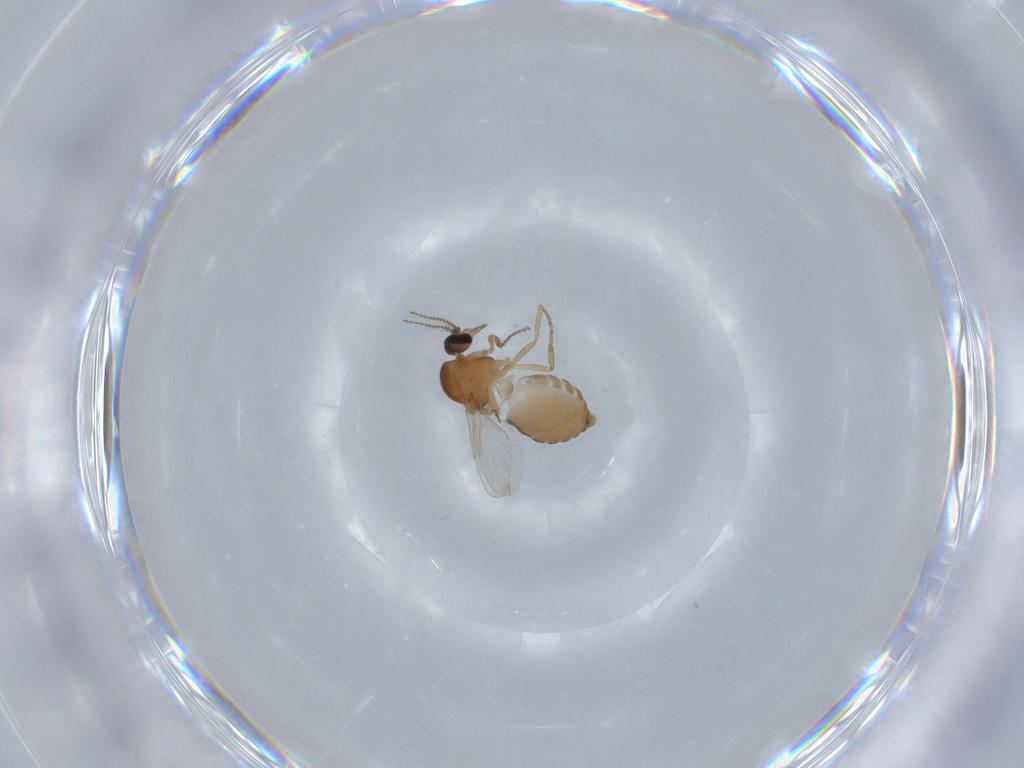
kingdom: Animalia
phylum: Arthropoda
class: Insecta
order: Diptera
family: Ceratopogonidae
